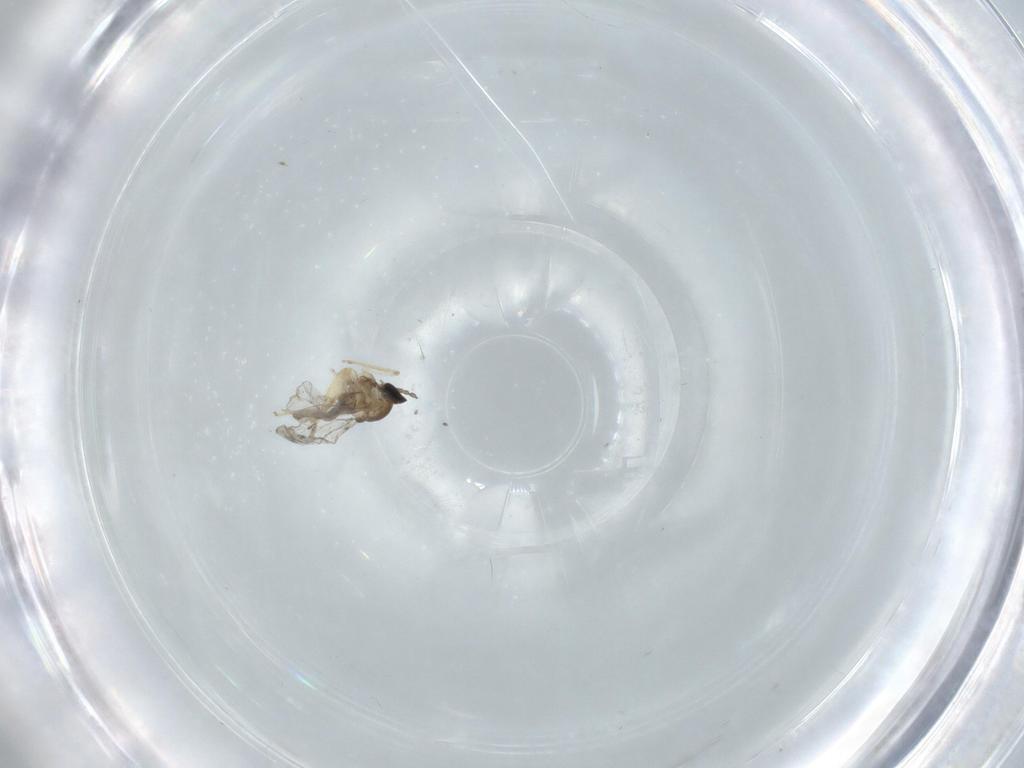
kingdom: Animalia
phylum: Arthropoda
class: Insecta
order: Diptera
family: Cecidomyiidae
